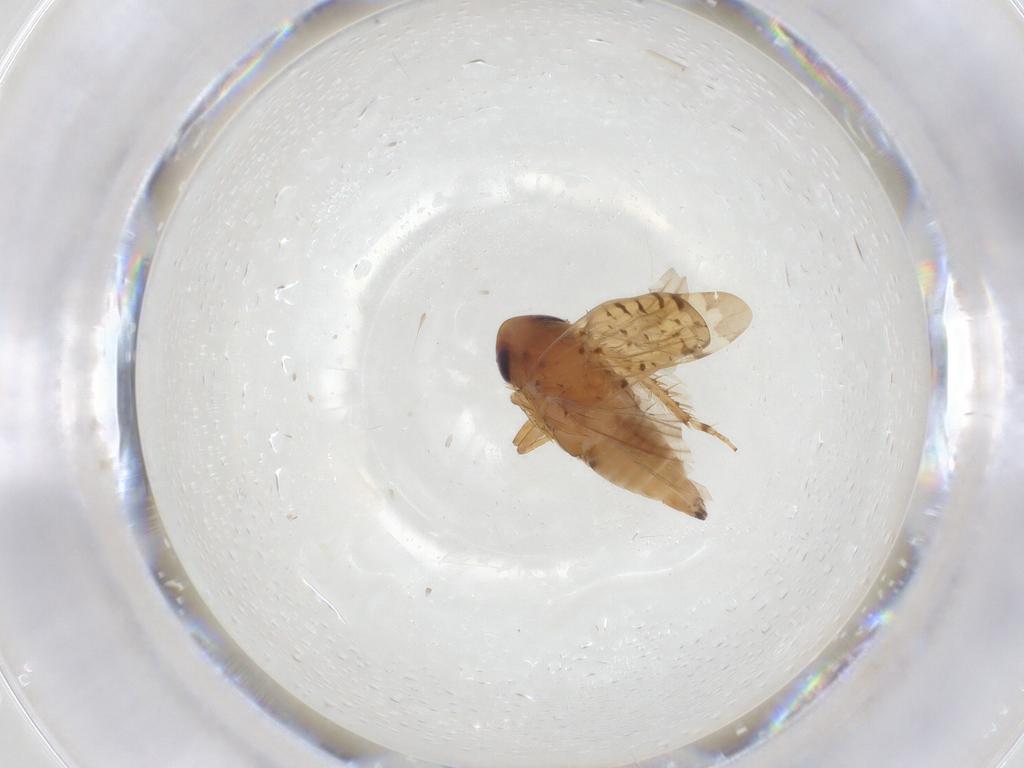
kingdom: Animalia
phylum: Arthropoda
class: Insecta
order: Hemiptera
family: Cicadellidae
